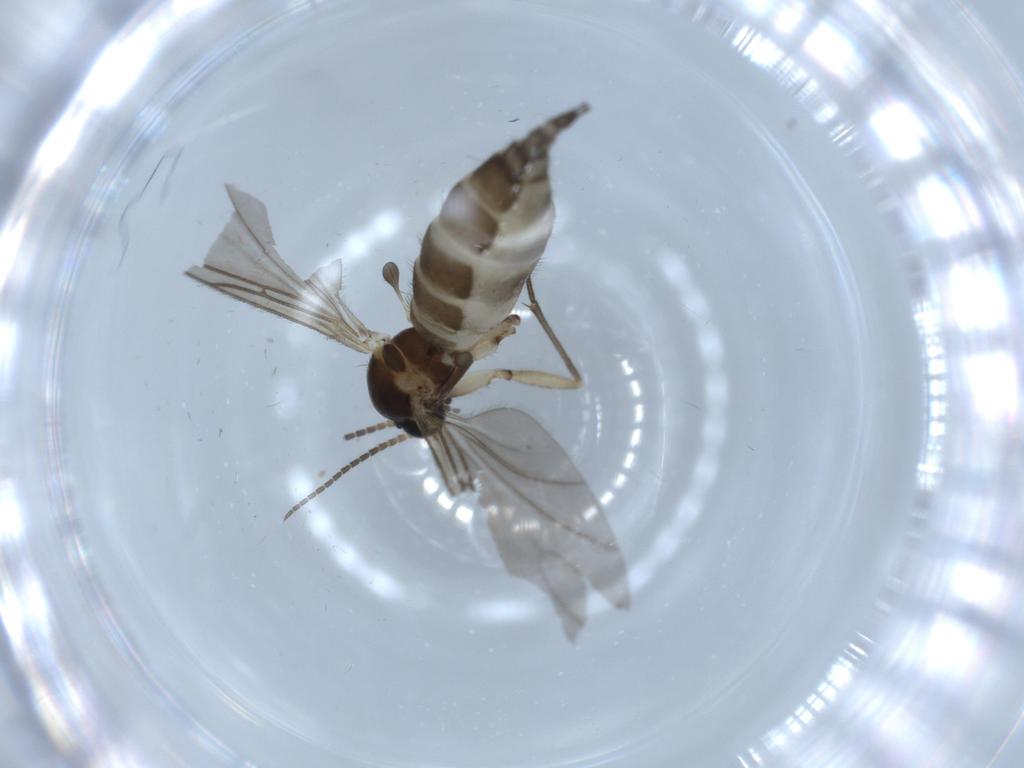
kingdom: Animalia
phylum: Arthropoda
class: Insecta
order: Diptera
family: Sciaridae
